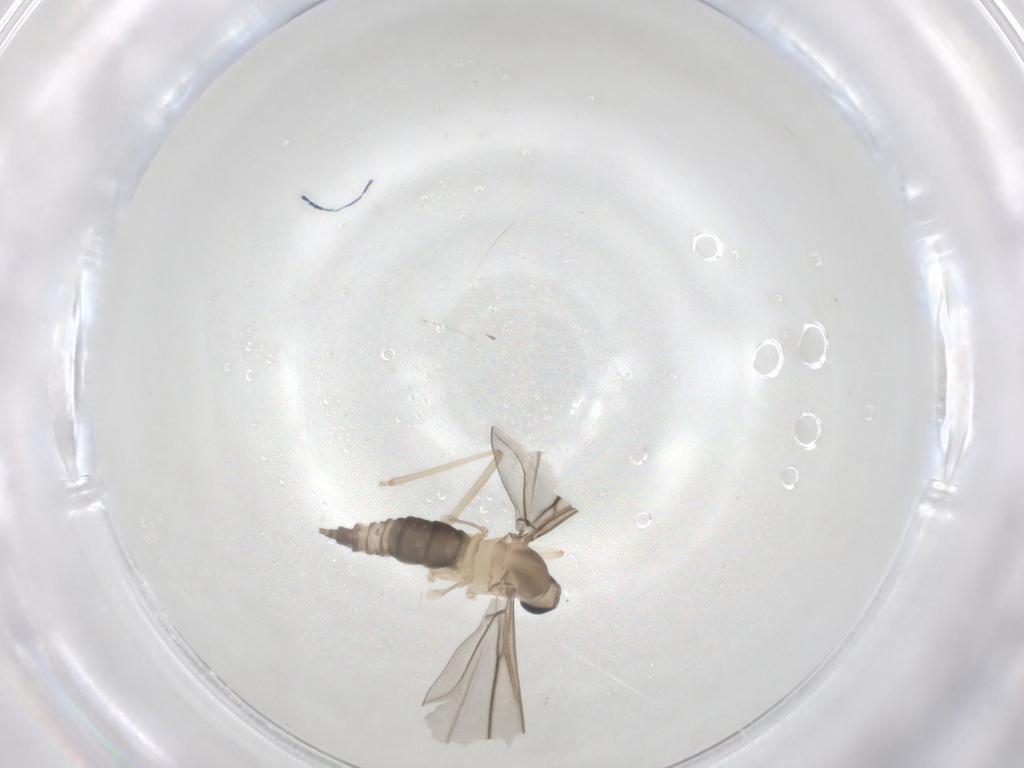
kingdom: Animalia
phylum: Arthropoda
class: Insecta
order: Diptera
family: Cecidomyiidae
